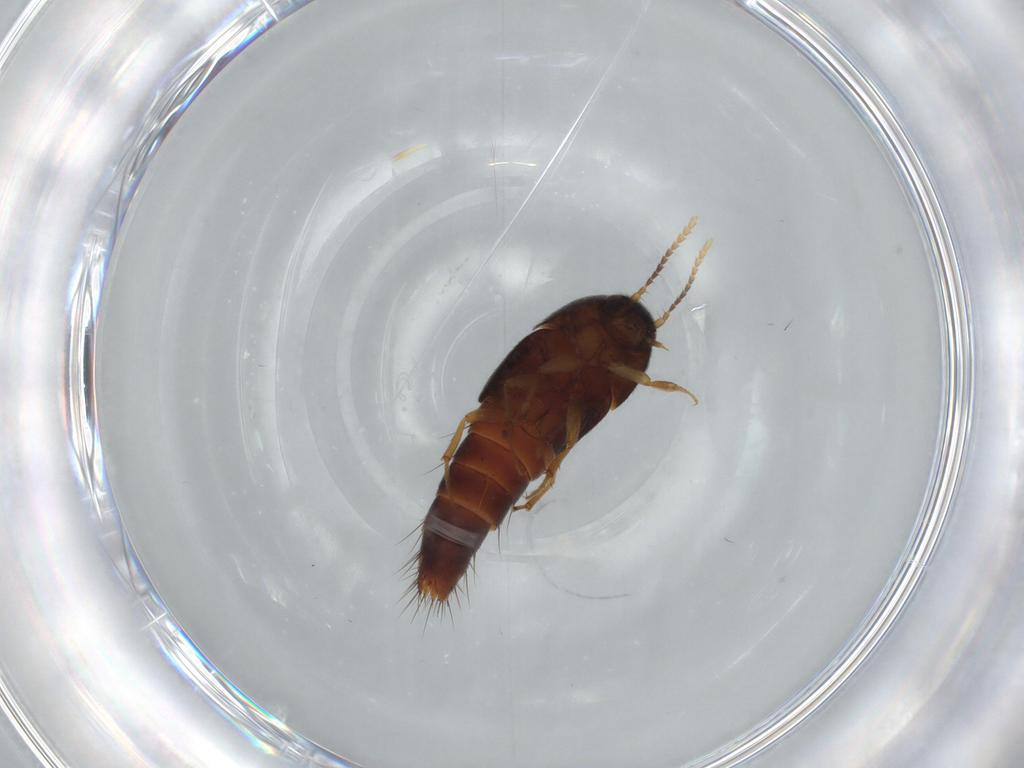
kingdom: Animalia
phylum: Arthropoda
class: Insecta
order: Coleoptera
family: Staphylinidae
